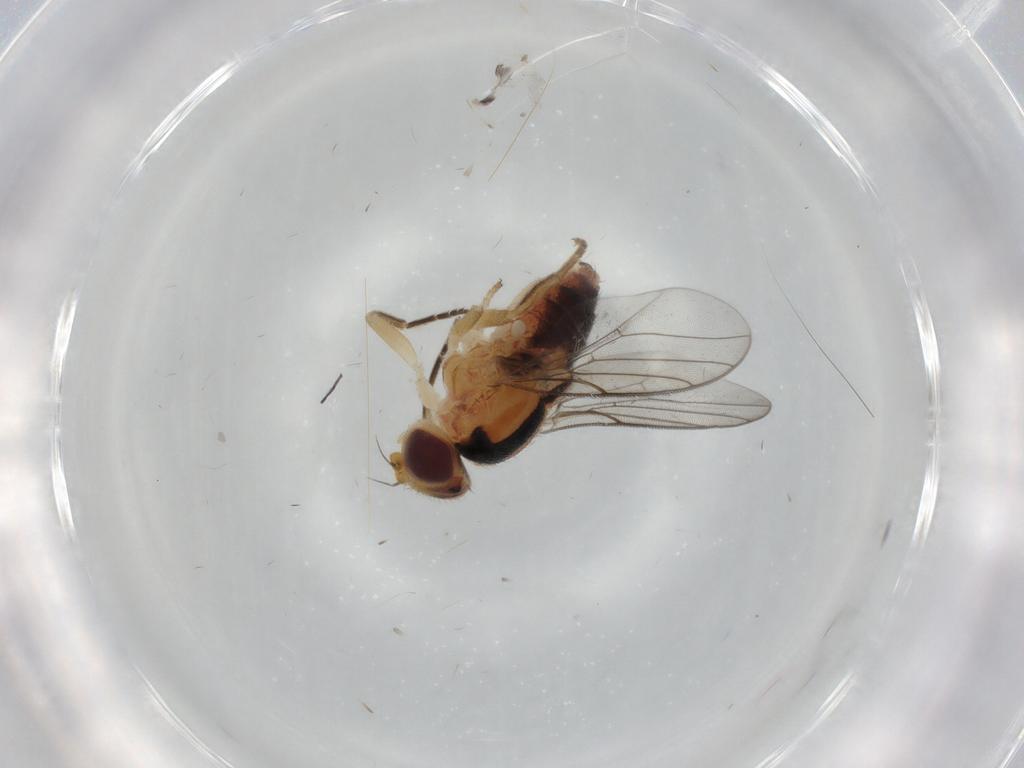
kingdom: Animalia
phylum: Arthropoda
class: Insecta
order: Diptera
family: Chloropidae
